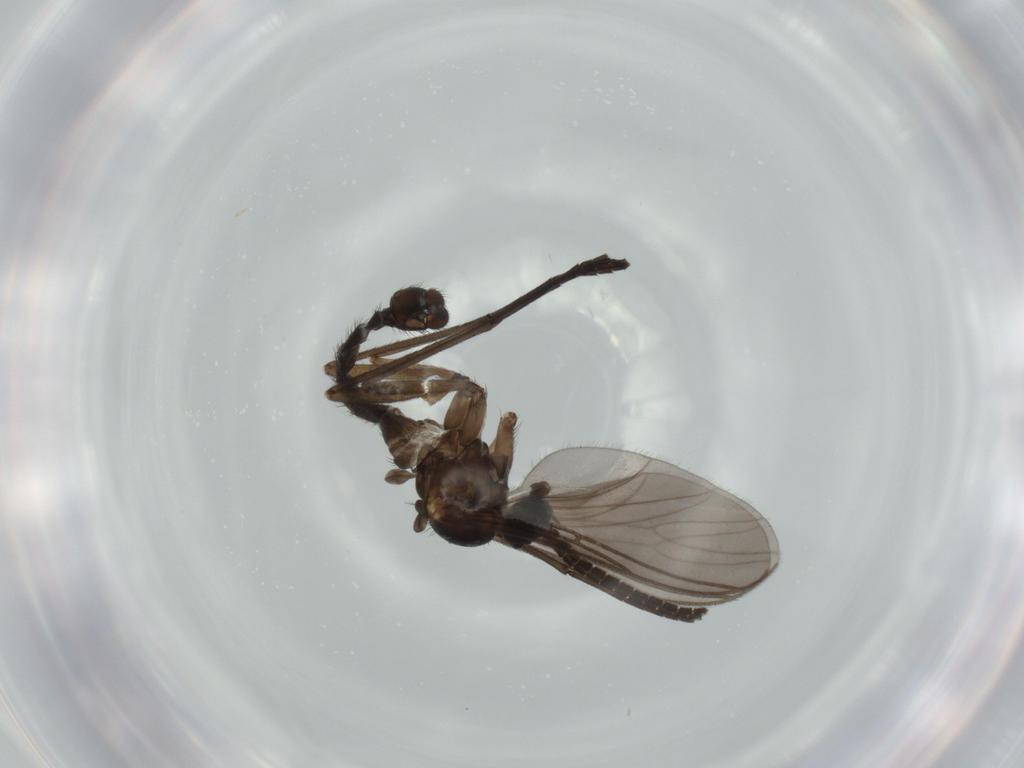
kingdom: Animalia
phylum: Arthropoda
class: Insecta
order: Diptera
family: Sciaridae
